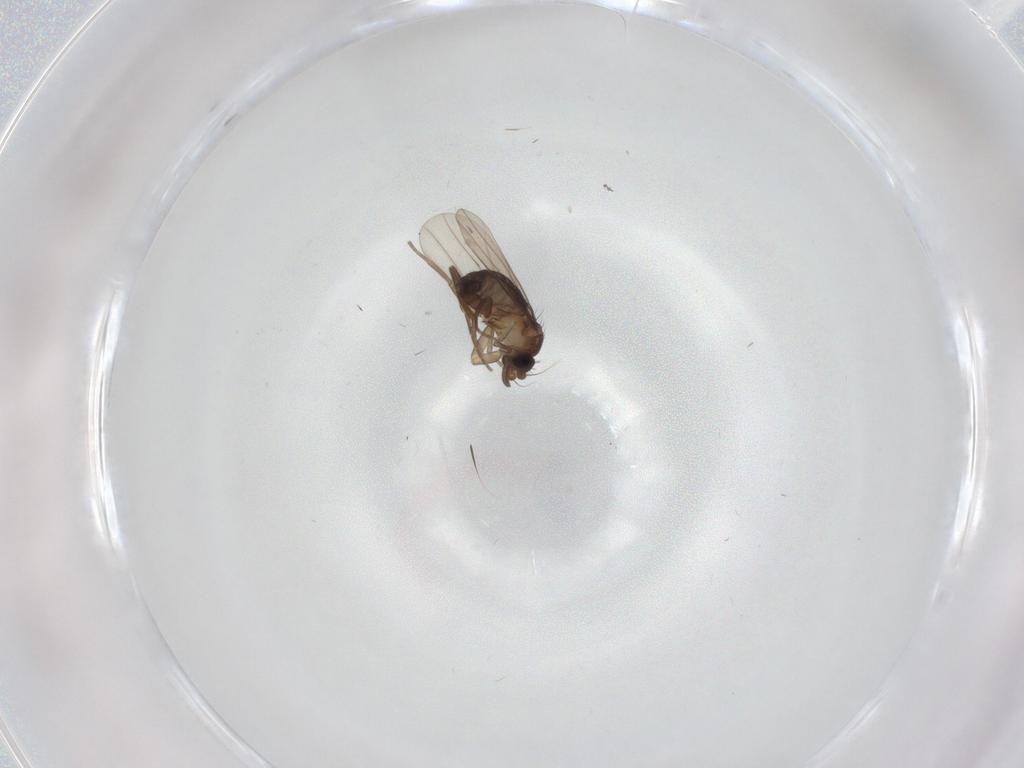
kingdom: Animalia
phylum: Arthropoda
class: Insecta
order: Diptera
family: Phoridae
